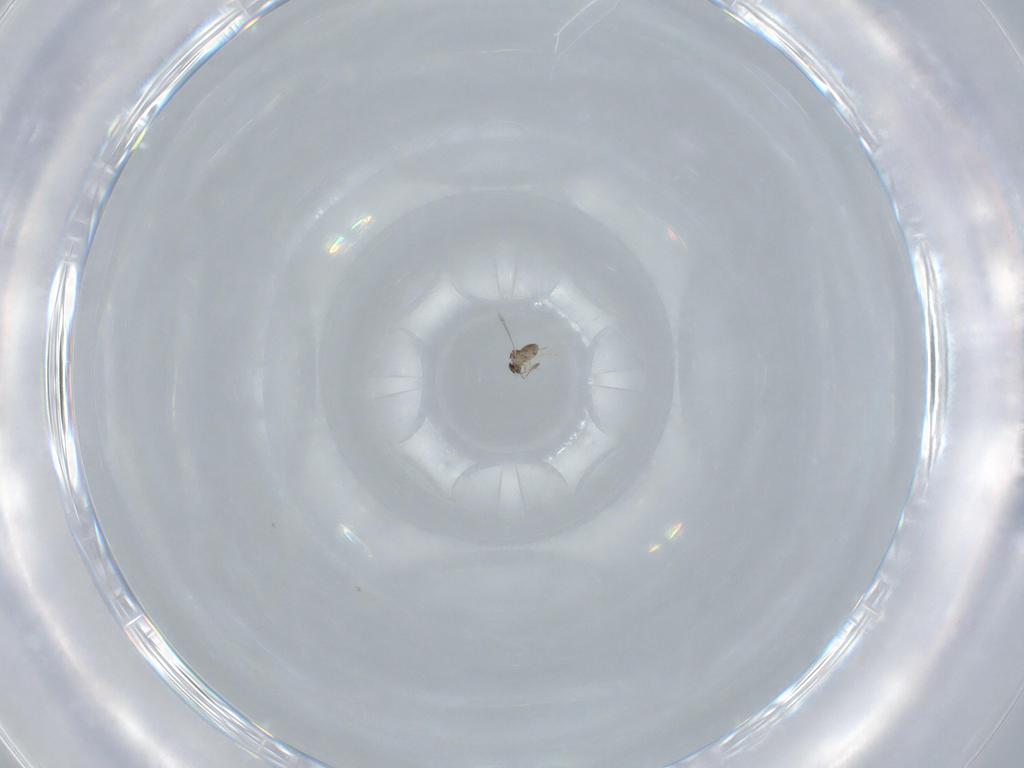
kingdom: Animalia
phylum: Arthropoda
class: Insecta
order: Hymenoptera
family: Mymaridae
